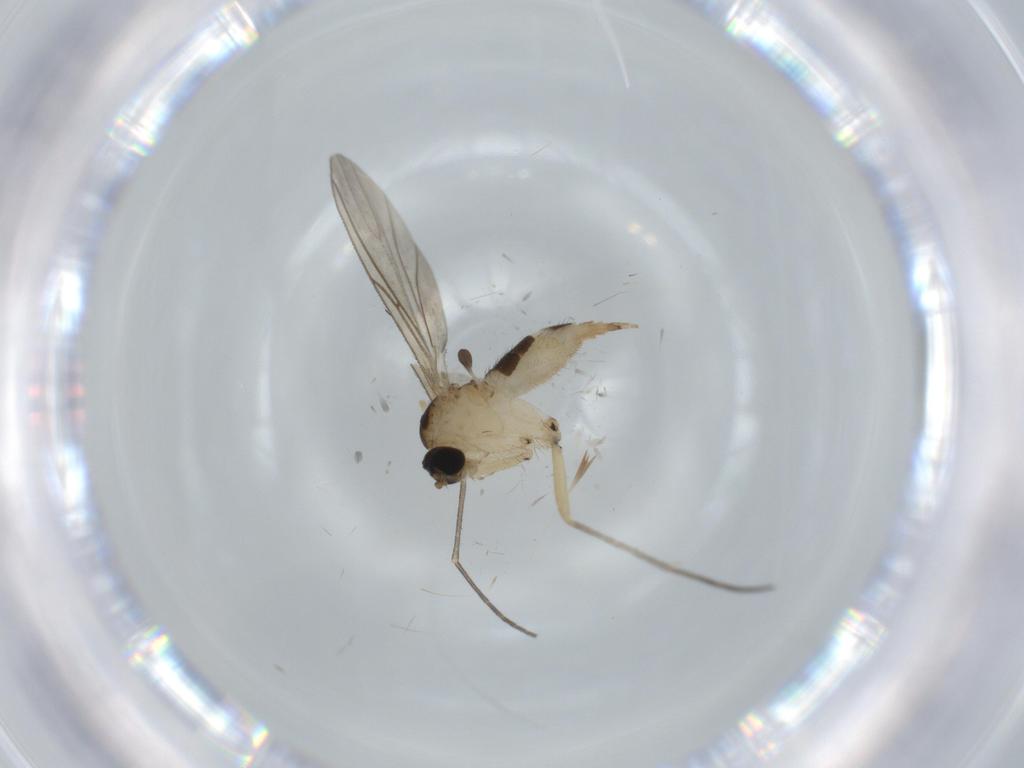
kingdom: Animalia
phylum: Arthropoda
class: Insecta
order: Diptera
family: Sciaridae
